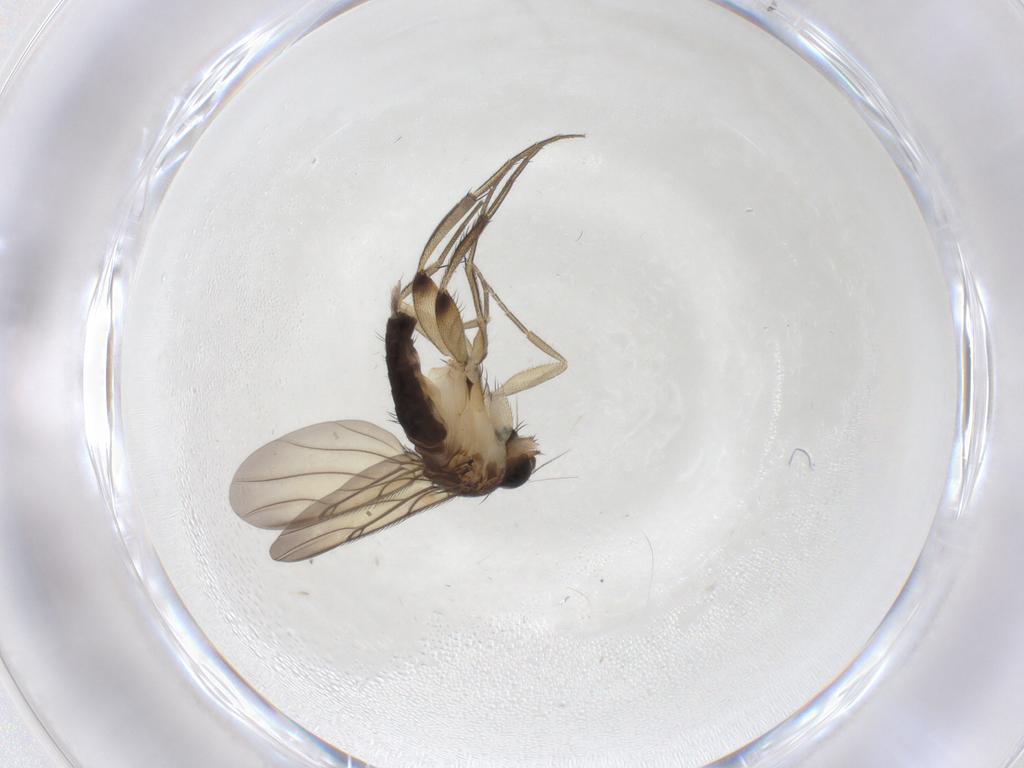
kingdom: Animalia
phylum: Arthropoda
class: Insecta
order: Diptera
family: Phoridae
